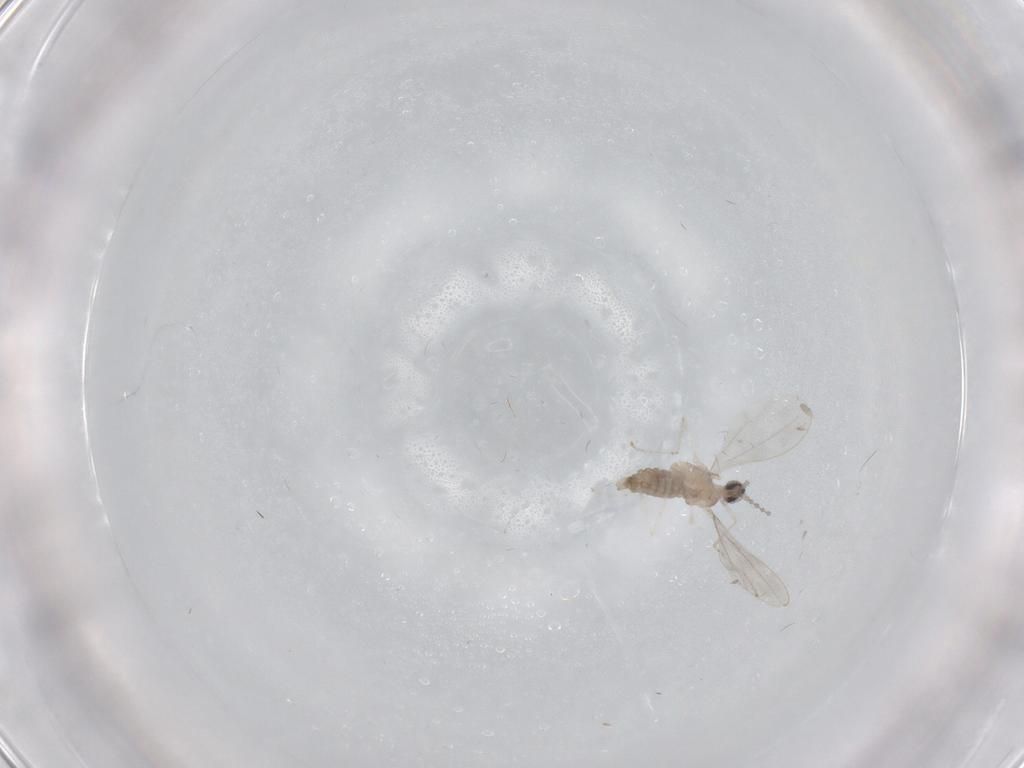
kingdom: Animalia
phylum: Arthropoda
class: Insecta
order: Diptera
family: Cecidomyiidae
